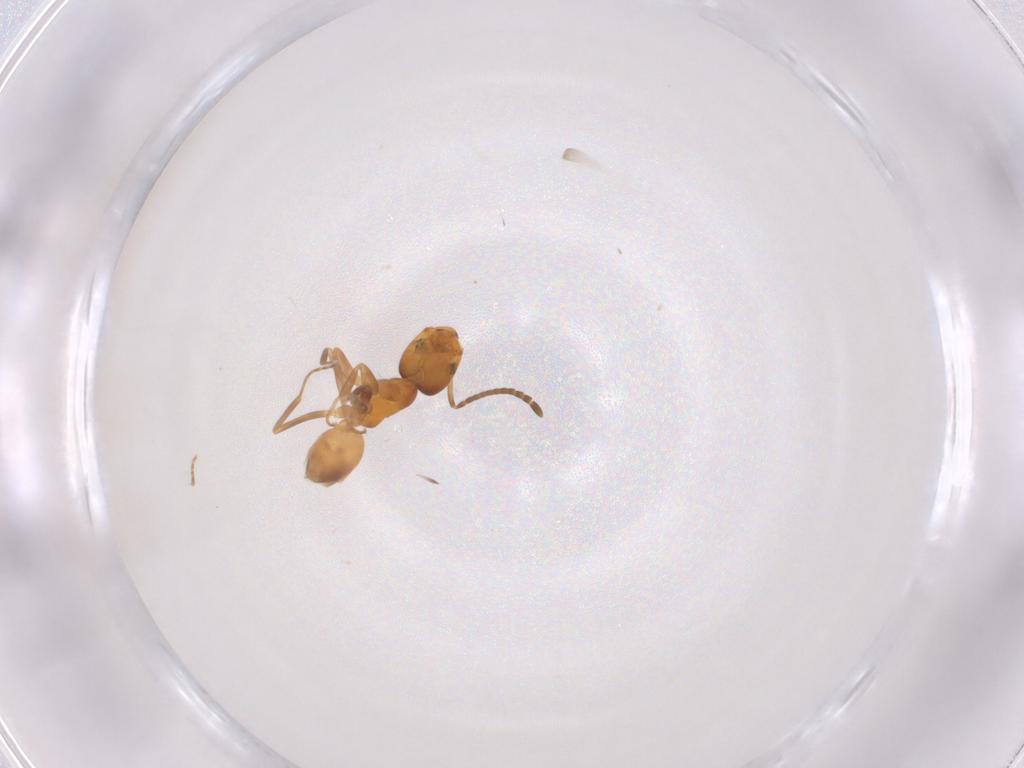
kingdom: Animalia
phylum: Arthropoda
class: Insecta
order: Hymenoptera
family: Formicidae
